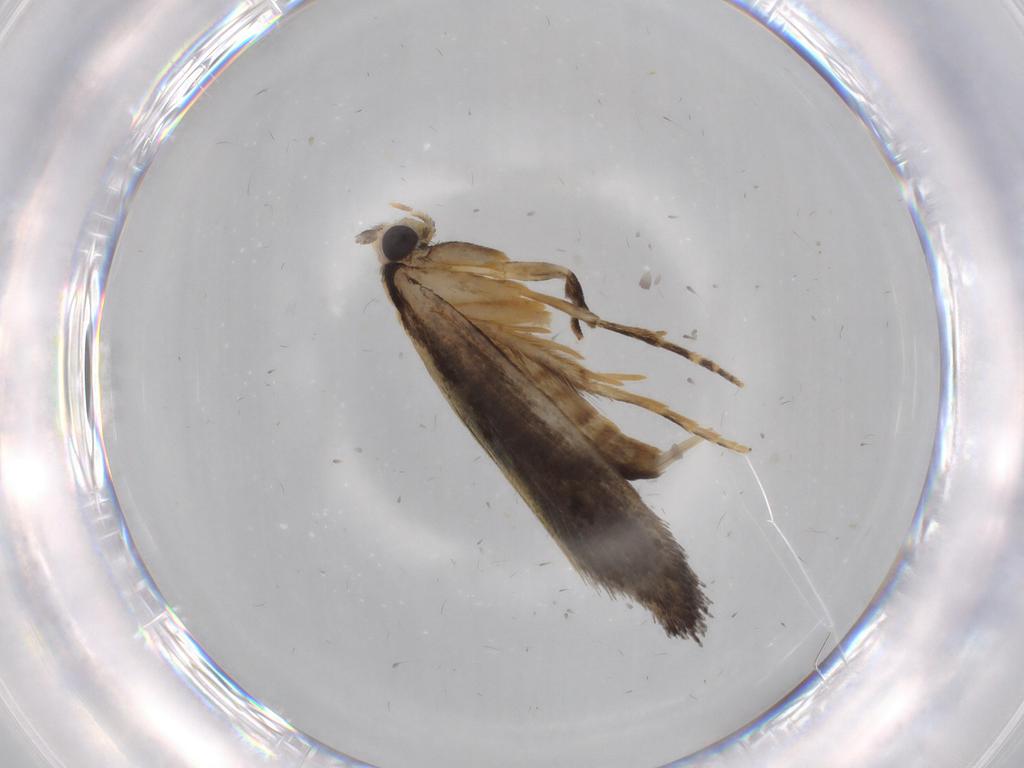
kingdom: Animalia
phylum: Arthropoda
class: Insecta
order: Lepidoptera
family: Tineidae
